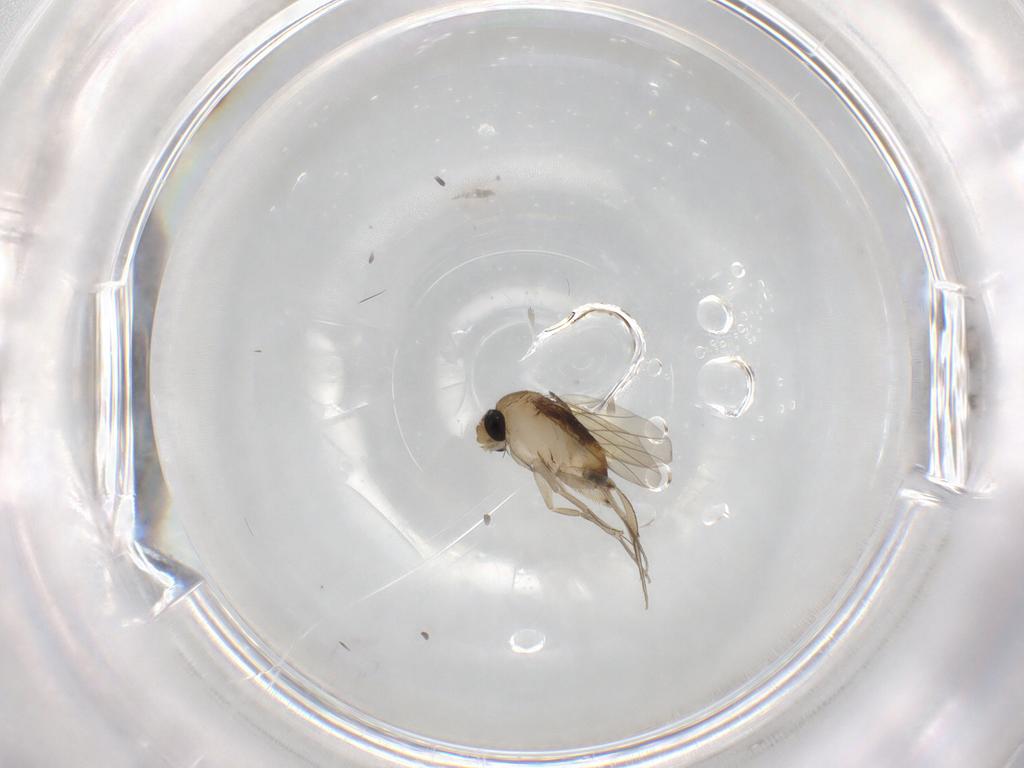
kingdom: Animalia
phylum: Arthropoda
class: Insecta
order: Diptera
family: Phoridae
